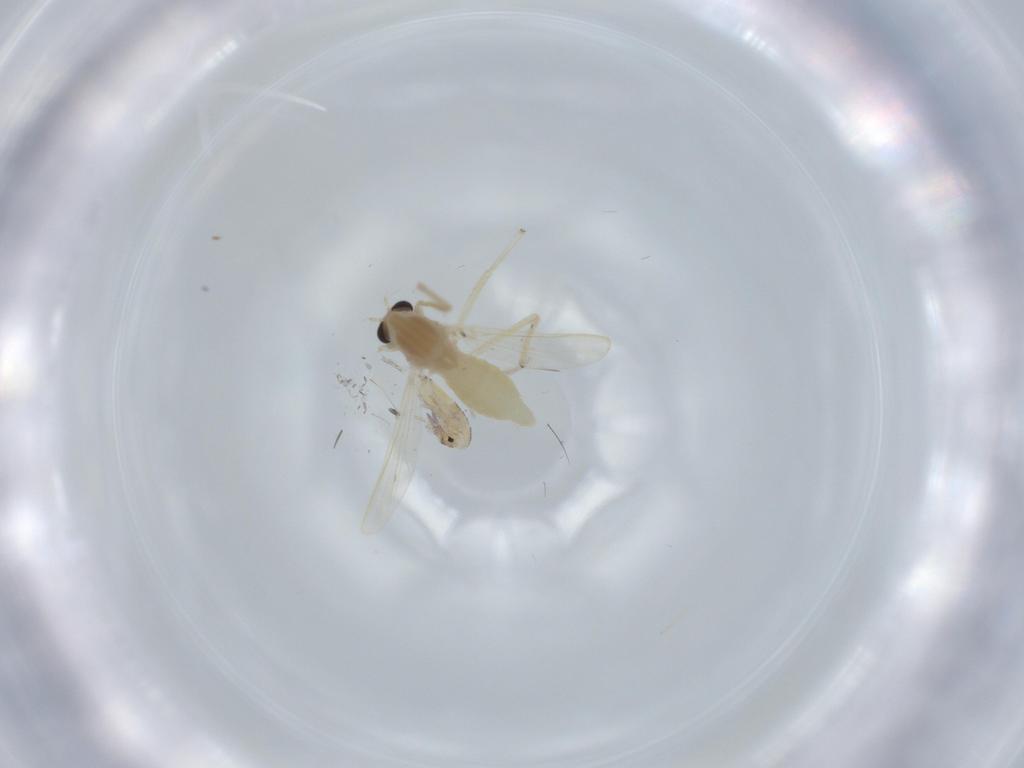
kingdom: Animalia
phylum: Arthropoda
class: Insecta
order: Diptera
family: Chironomidae
